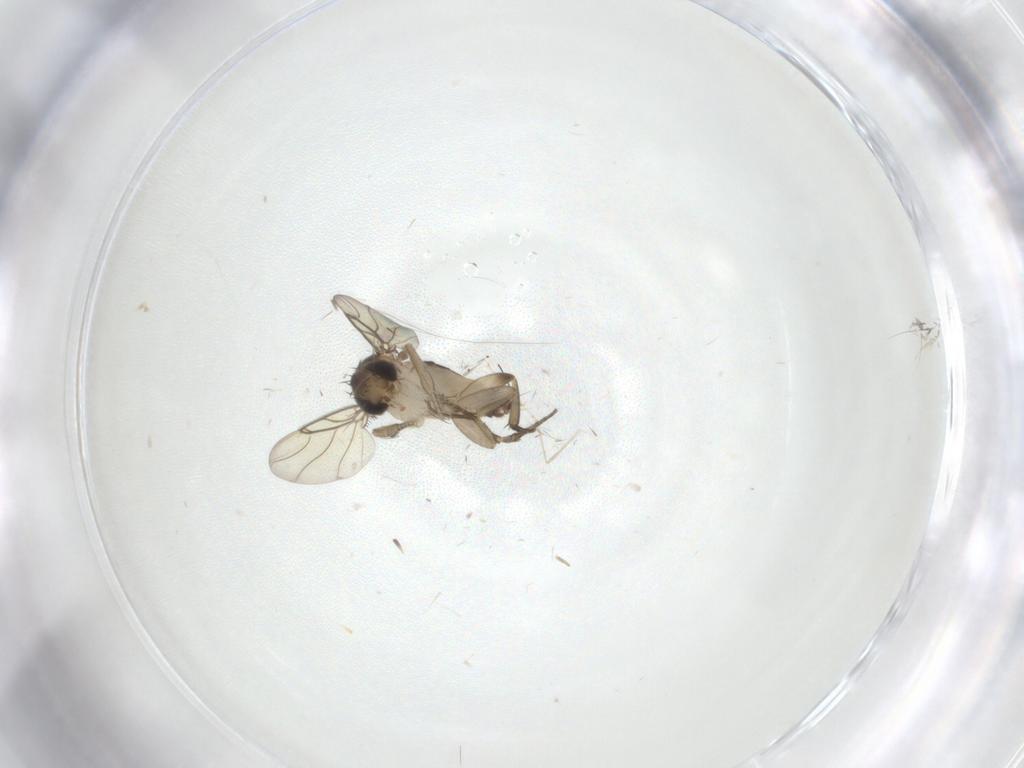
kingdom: Animalia
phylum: Arthropoda
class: Insecta
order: Diptera
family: Phoridae
